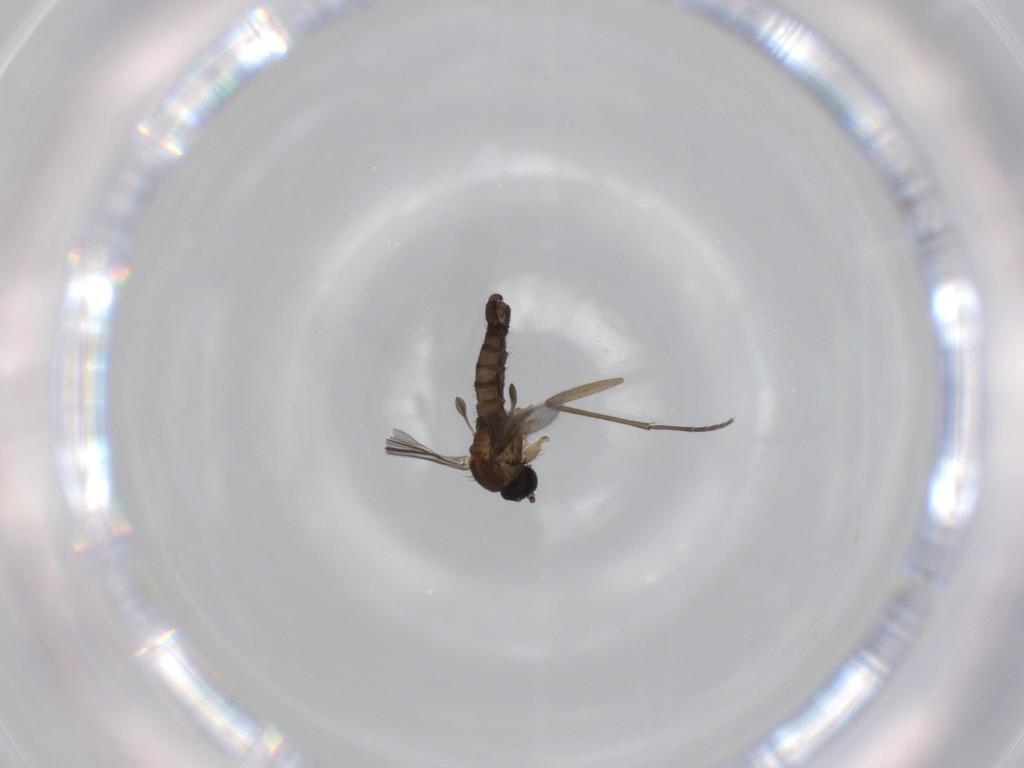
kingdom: Animalia
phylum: Arthropoda
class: Insecta
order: Diptera
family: Sciaridae
